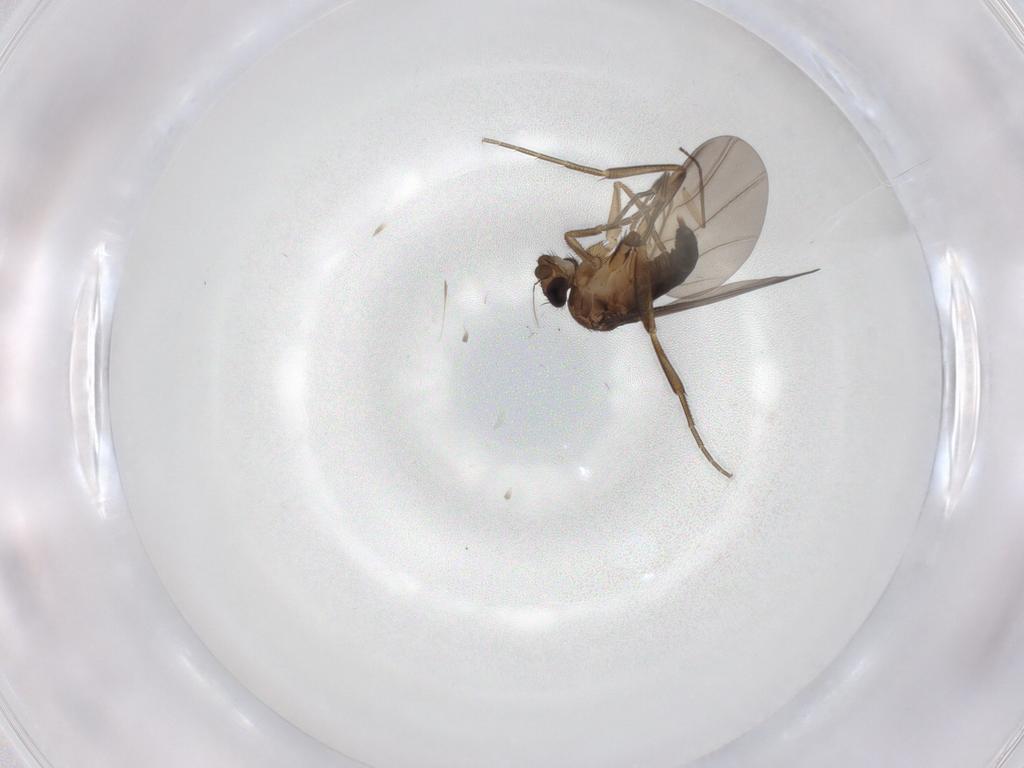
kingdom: Animalia
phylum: Arthropoda
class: Insecta
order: Diptera
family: Phoridae
